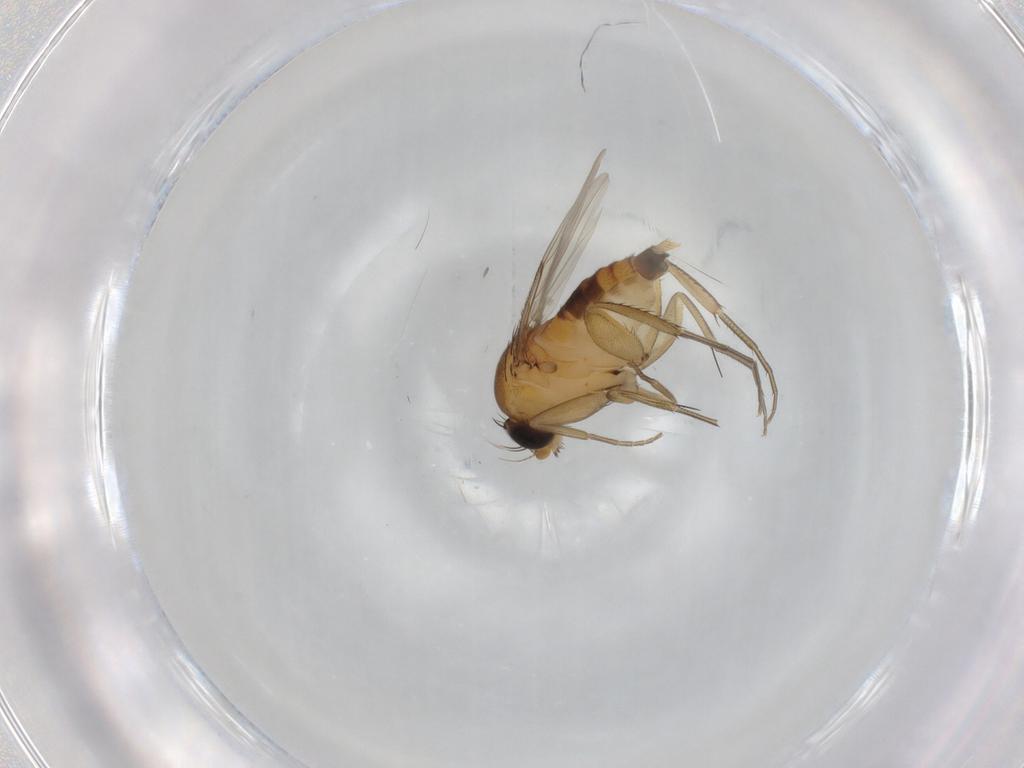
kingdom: Animalia
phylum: Arthropoda
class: Insecta
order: Diptera
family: Phoridae
